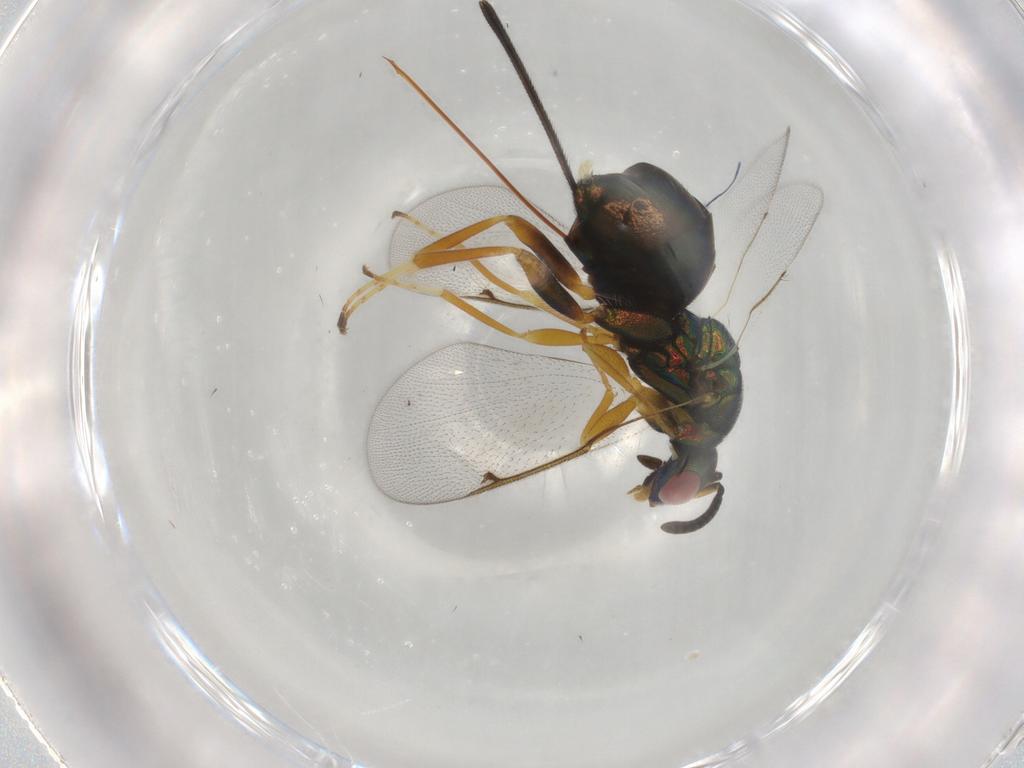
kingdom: Animalia
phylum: Arthropoda
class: Insecta
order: Hymenoptera
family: Torymidae
